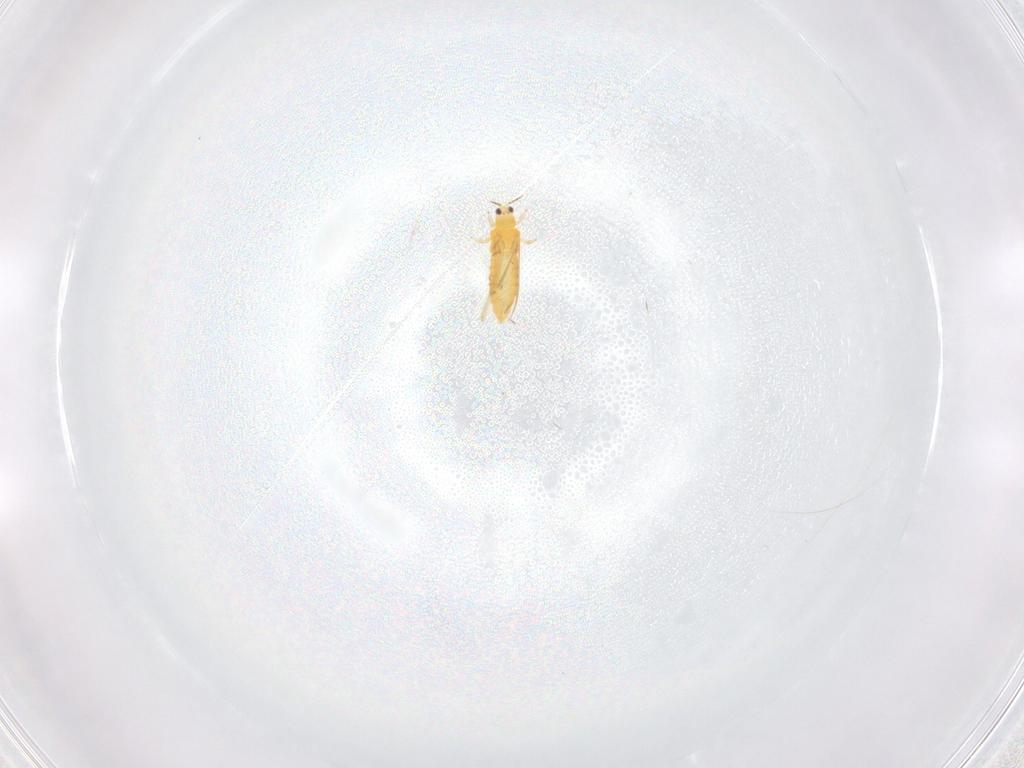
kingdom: Animalia
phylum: Arthropoda
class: Insecta
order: Thysanoptera
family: Thripidae
